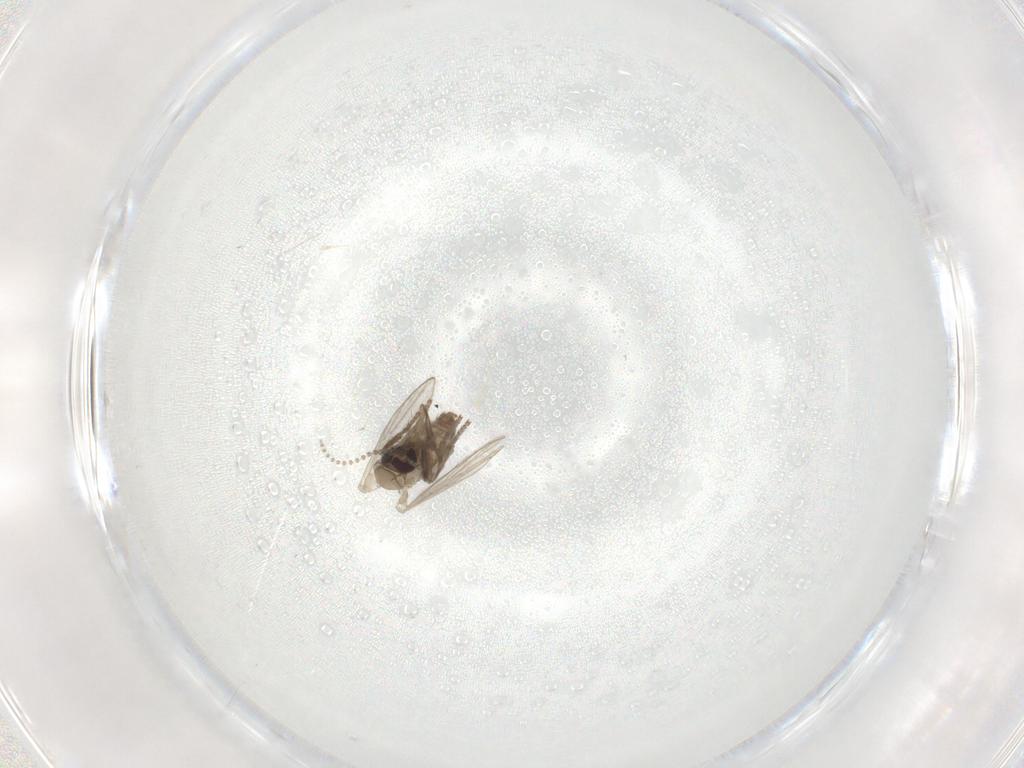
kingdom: Animalia
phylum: Arthropoda
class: Insecta
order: Diptera
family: Psychodidae
